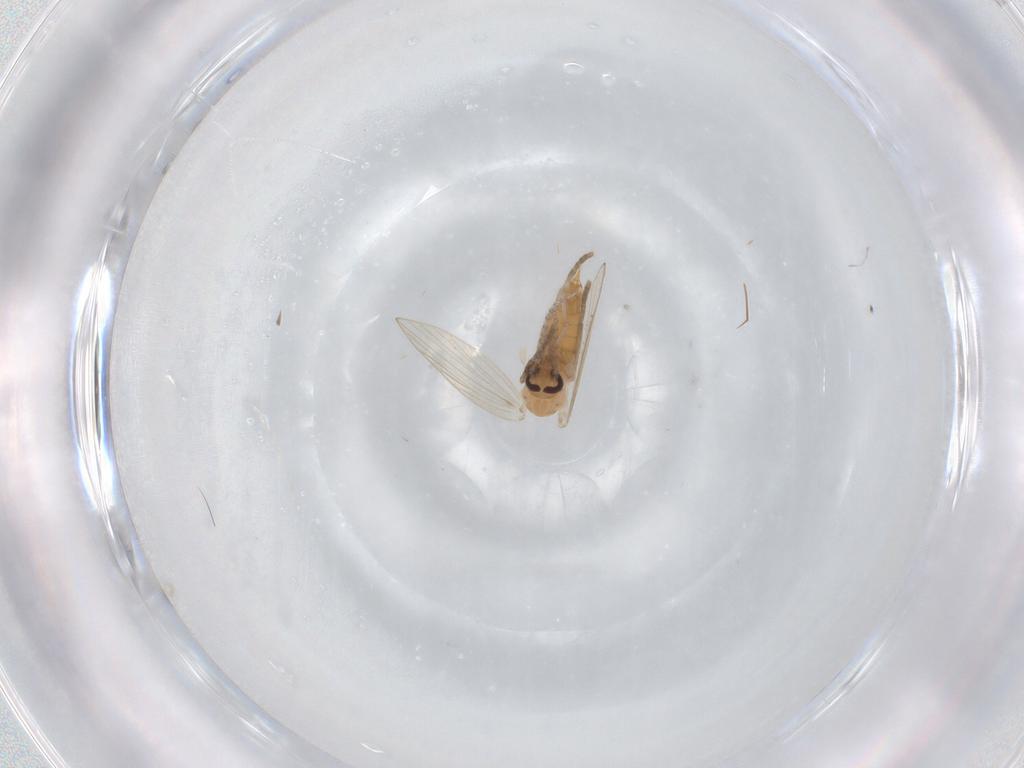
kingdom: Animalia
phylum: Arthropoda
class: Insecta
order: Diptera
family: Psychodidae
